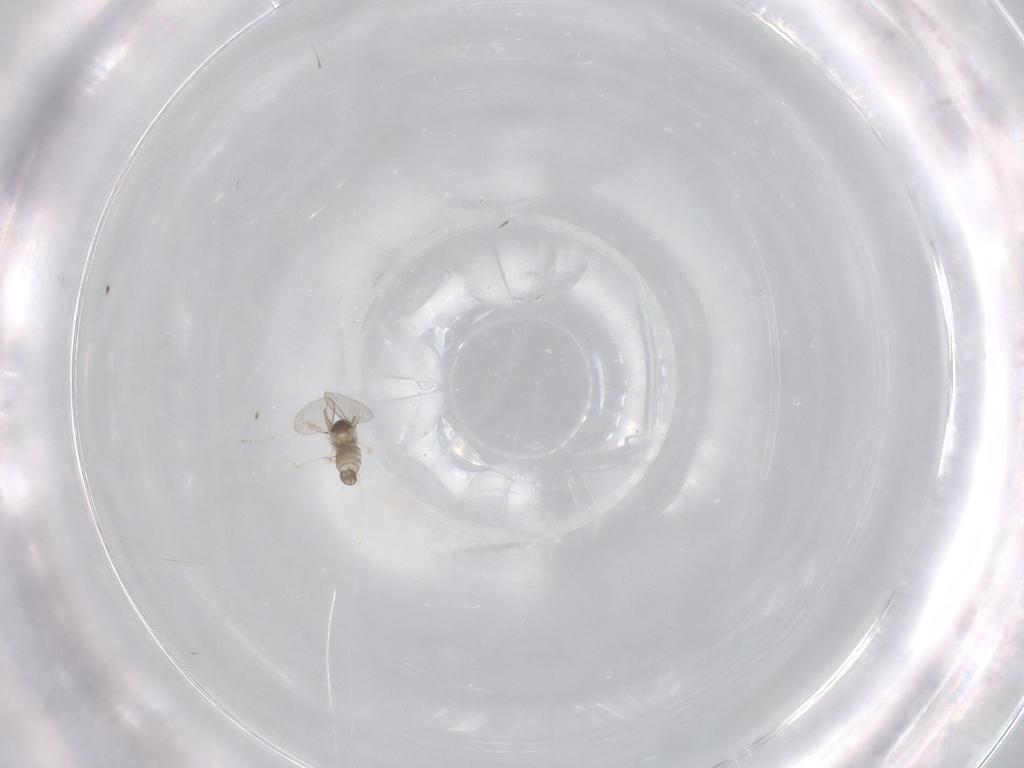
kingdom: Animalia
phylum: Arthropoda
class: Insecta
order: Diptera
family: Cecidomyiidae
